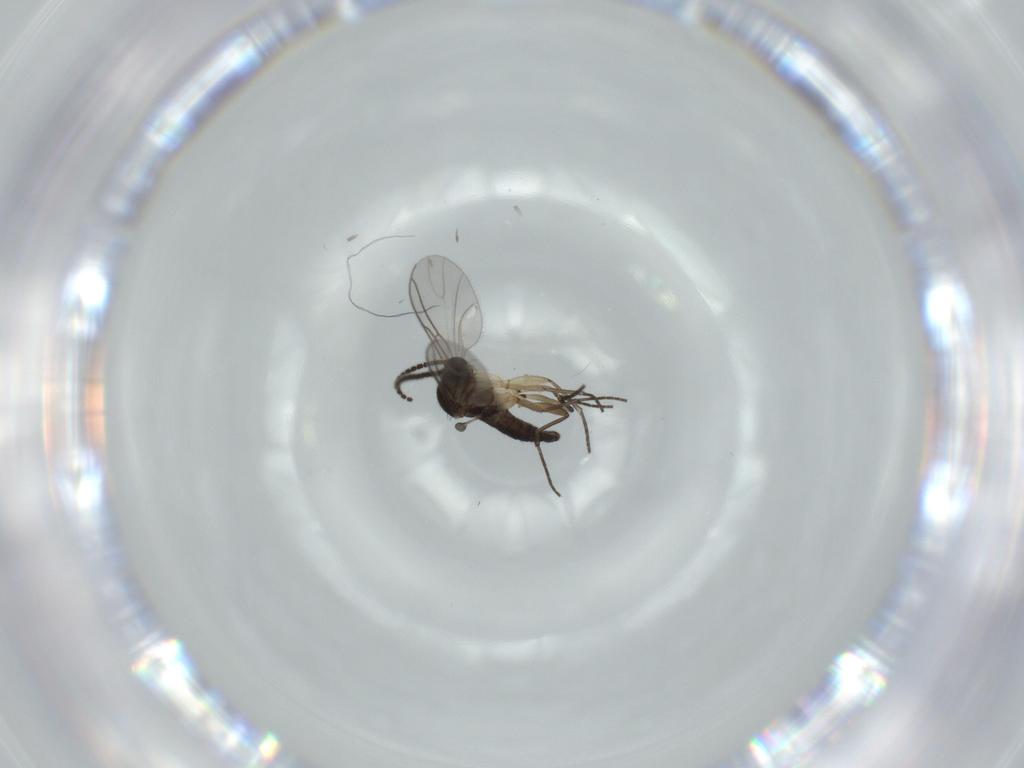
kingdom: Animalia
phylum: Arthropoda
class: Insecta
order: Diptera
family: Sciaridae
